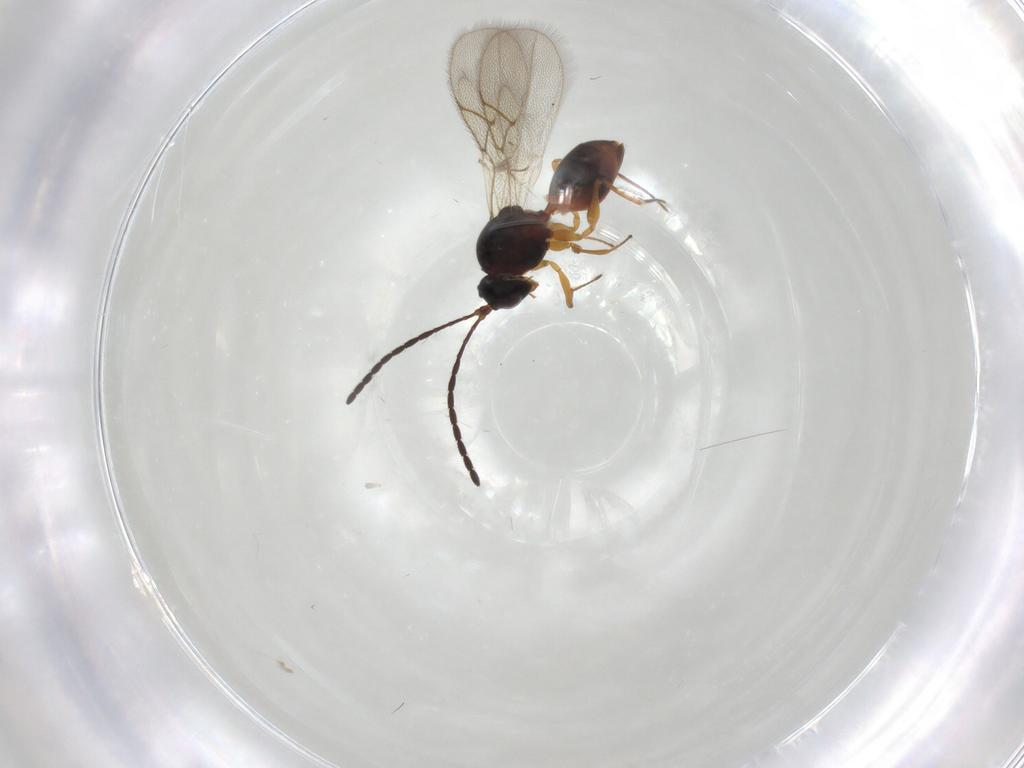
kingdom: Animalia
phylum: Arthropoda
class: Insecta
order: Hymenoptera
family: Figitidae
